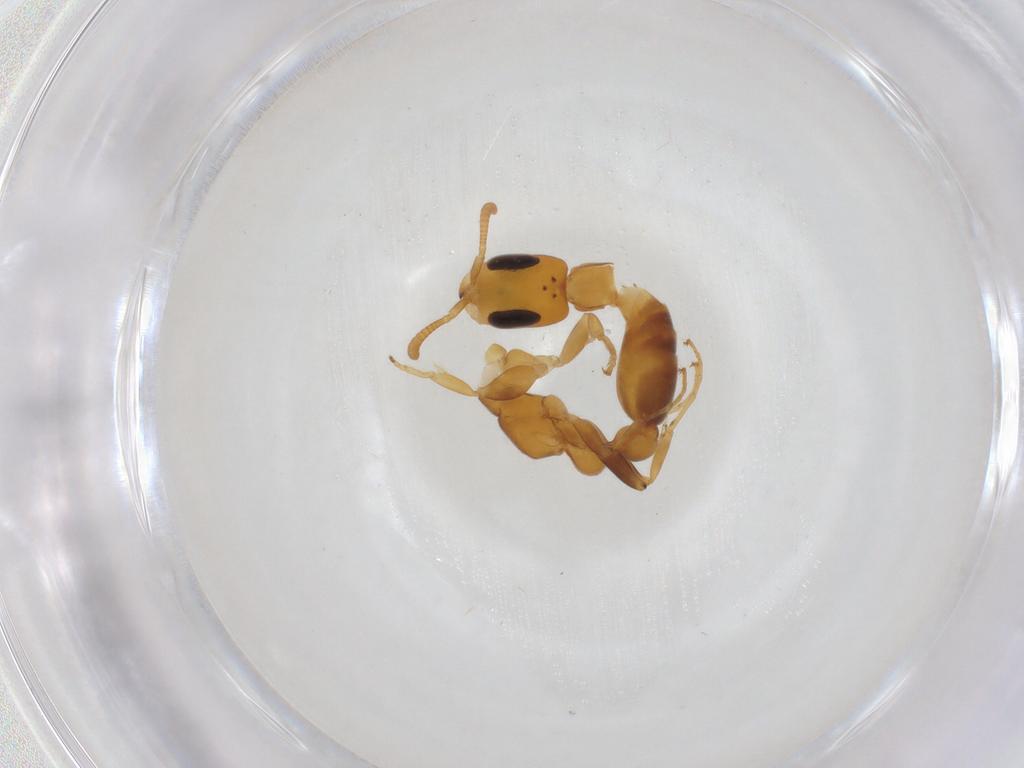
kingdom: Animalia
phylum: Arthropoda
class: Insecta
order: Hymenoptera
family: Formicidae
